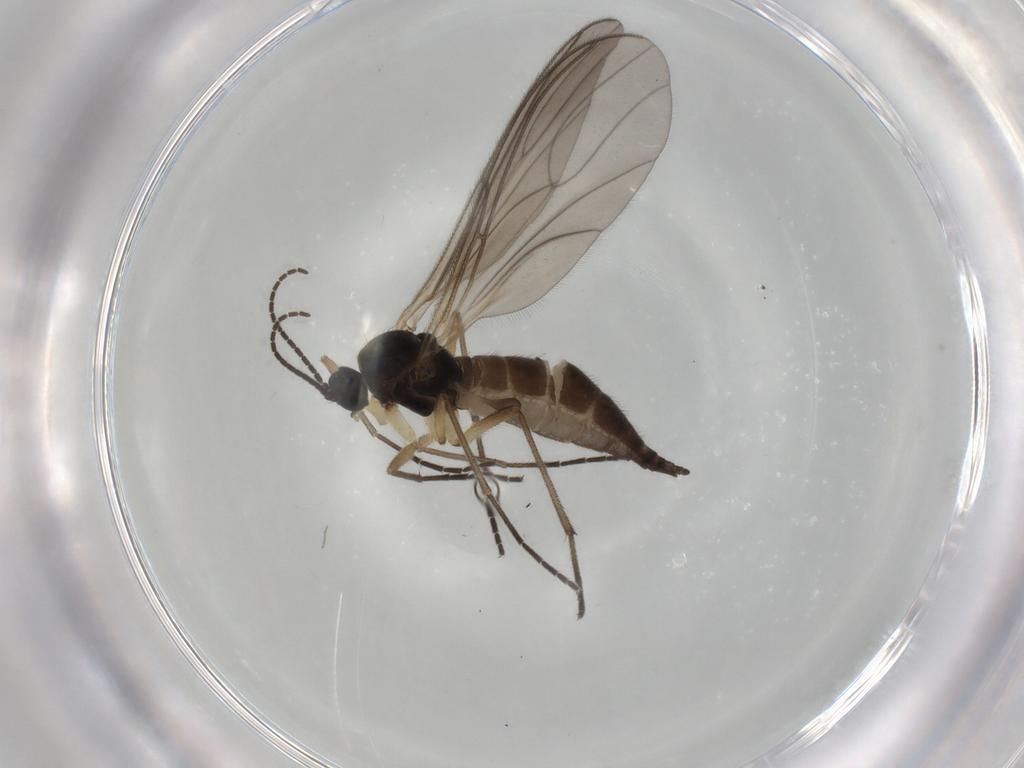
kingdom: Animalia
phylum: Arthropoda
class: Insecta
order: Diptera
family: Sciaridae
